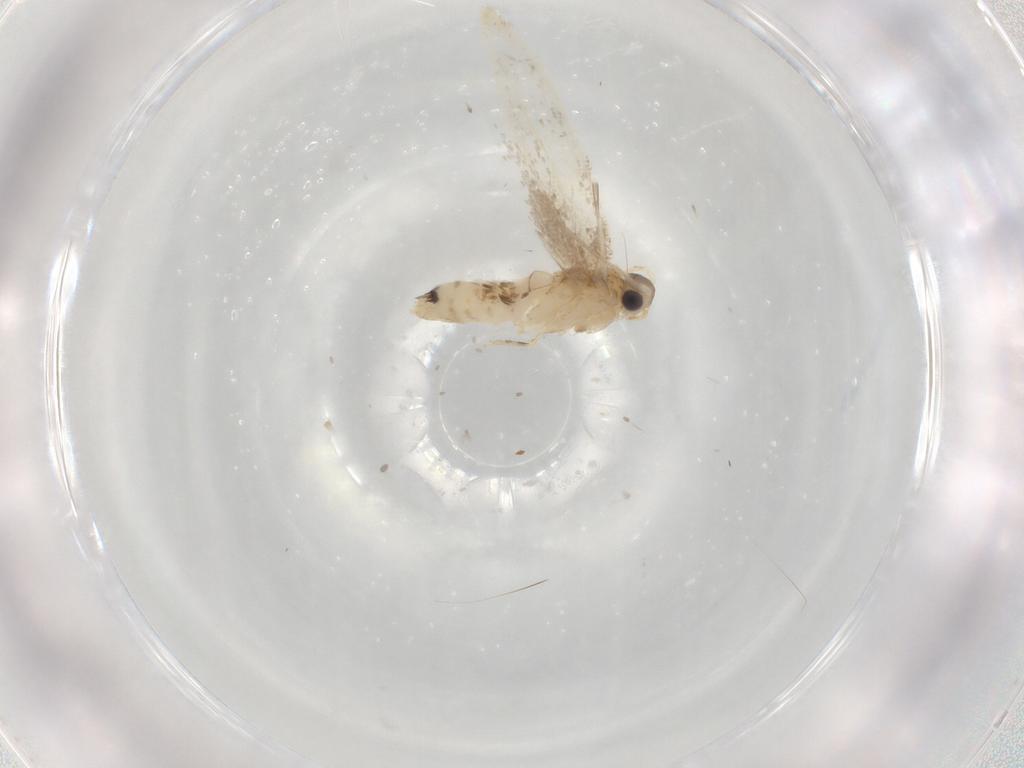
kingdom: Animalia
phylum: Arthropoda
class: Insecta
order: Lepidoptera
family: Dryadaulidae
